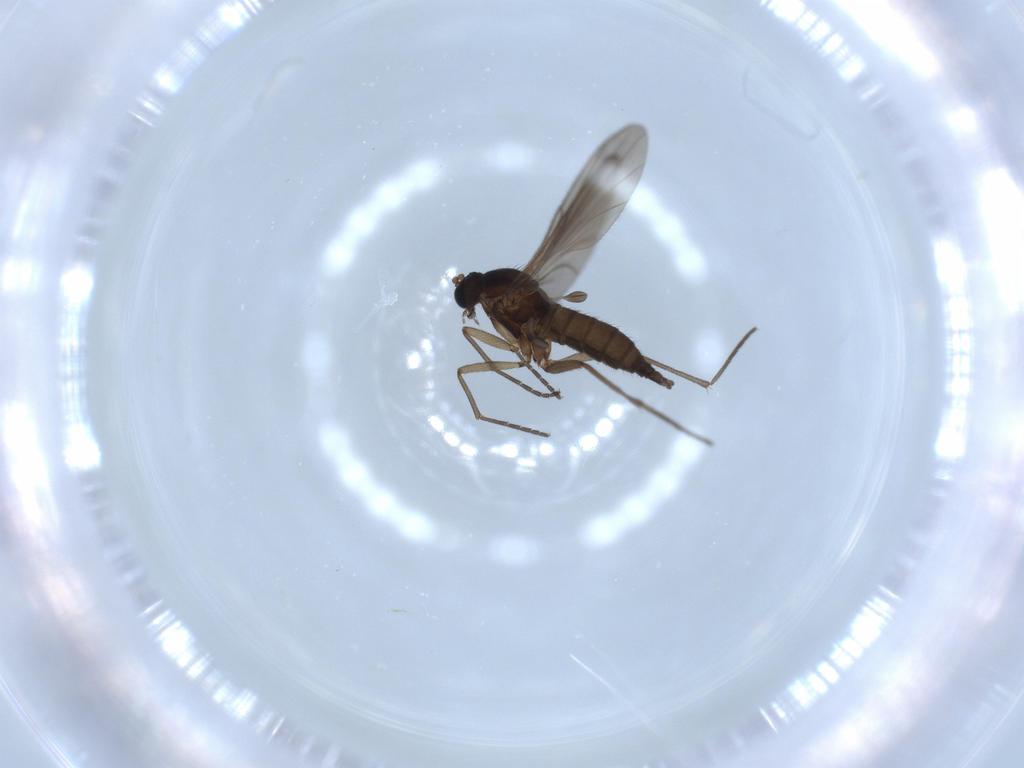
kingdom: Animalia
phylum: Arthropoda
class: Insecta
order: Diptera
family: Sciaridae
